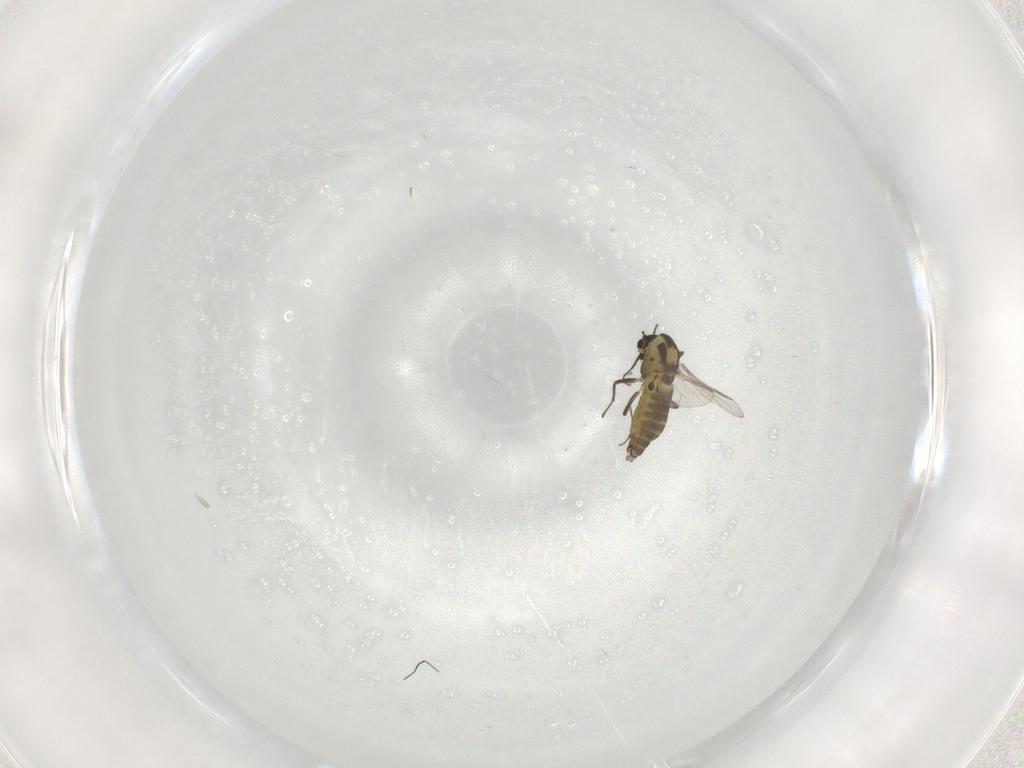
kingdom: Animalia
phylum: Arthropoda
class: Insecta
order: Diptera
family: Chironomidae
